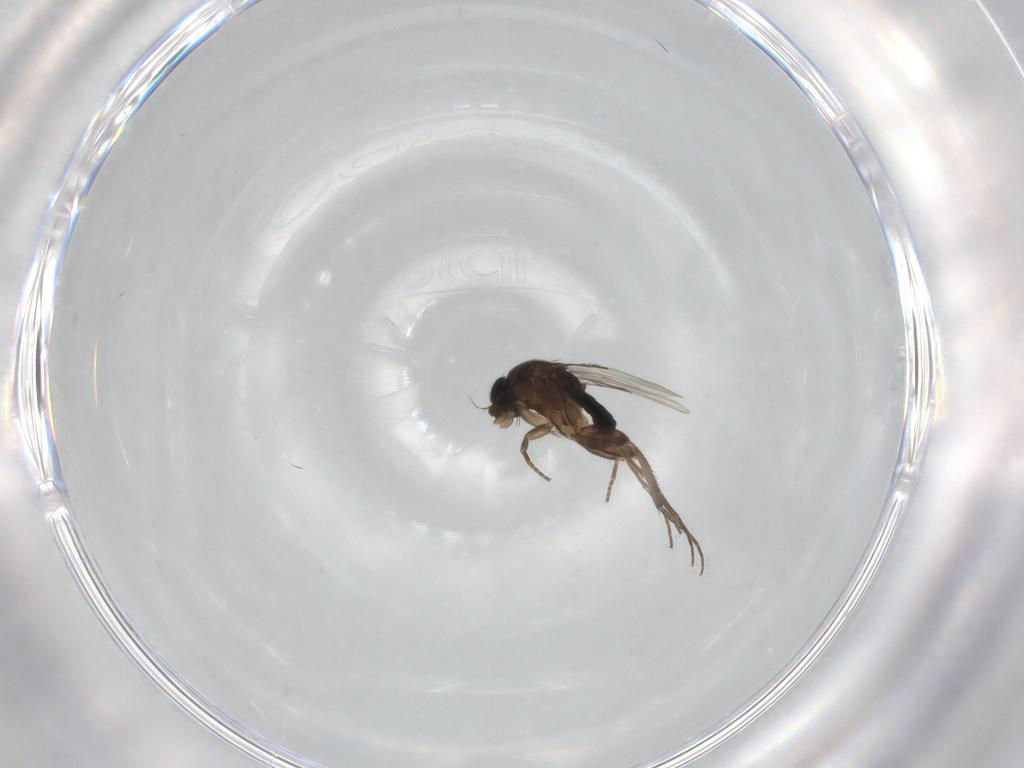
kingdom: Animalia
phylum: Arthropoda
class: Insecta
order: Diptera
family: Phoridae
